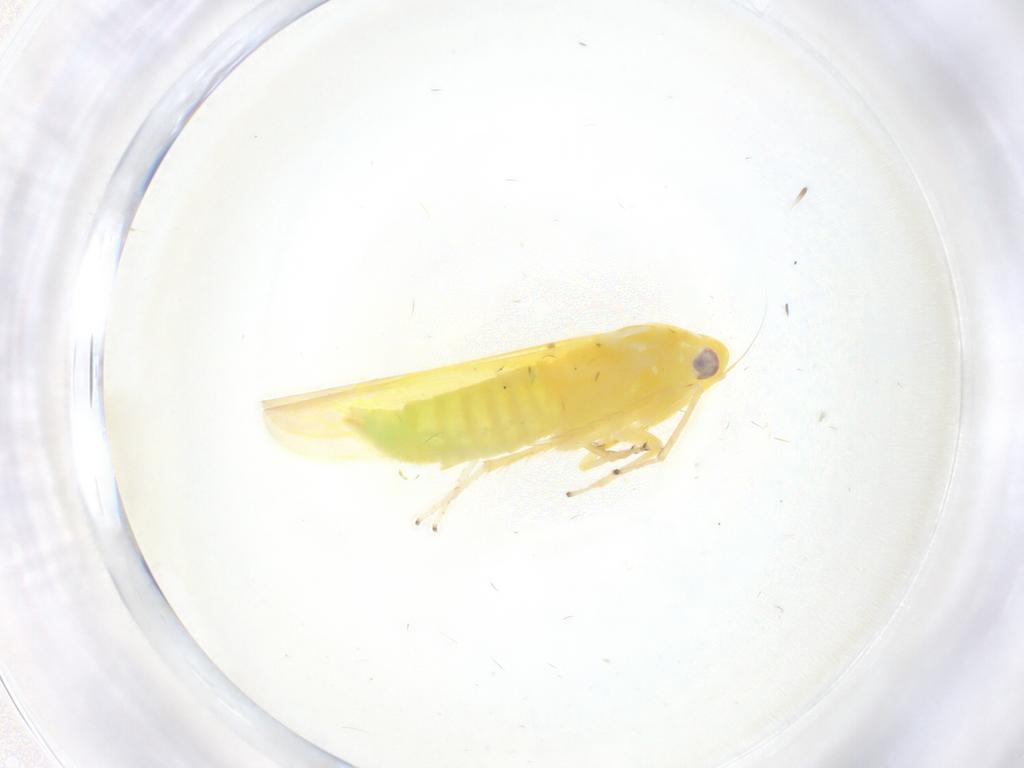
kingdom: Animalia
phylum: Arthropoda
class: Insecta
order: Hemiptera
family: Cicadellidae
